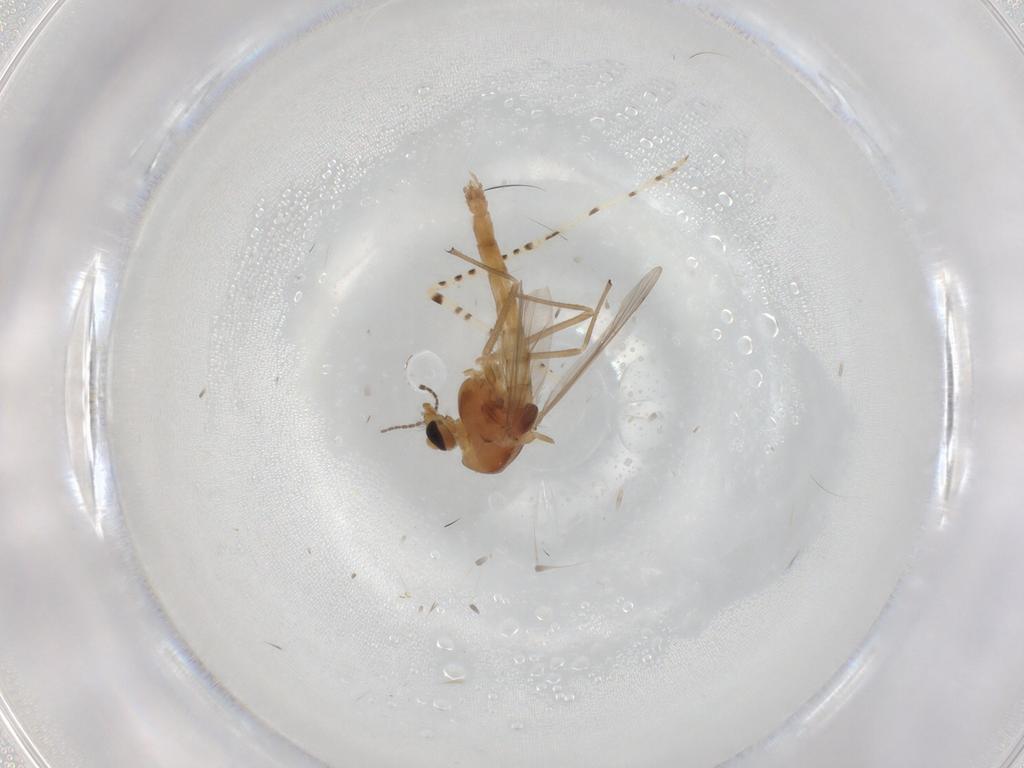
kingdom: Animalia
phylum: Arthropoda
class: Insecta
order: Diptera
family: Chironomidae
